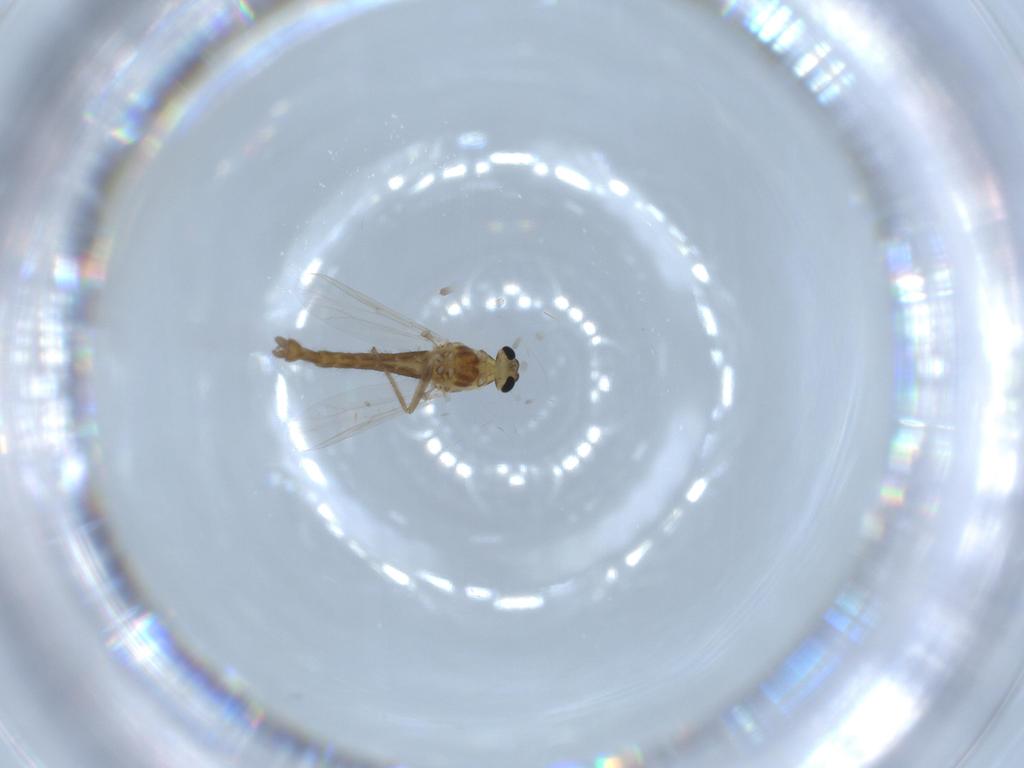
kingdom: Animalia
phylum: Arthropoda
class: Insecta
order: Diptera
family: Chironomidae
